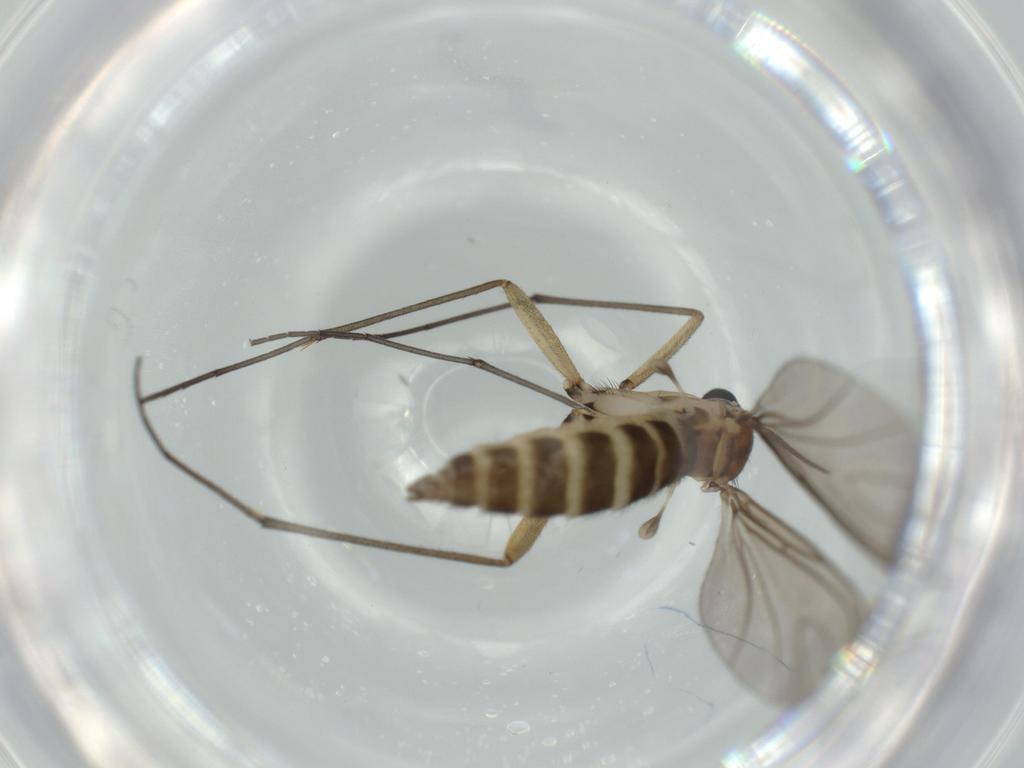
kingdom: Animalia
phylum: Arthropoda
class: Insecta
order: Diptera
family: Sciaridae
